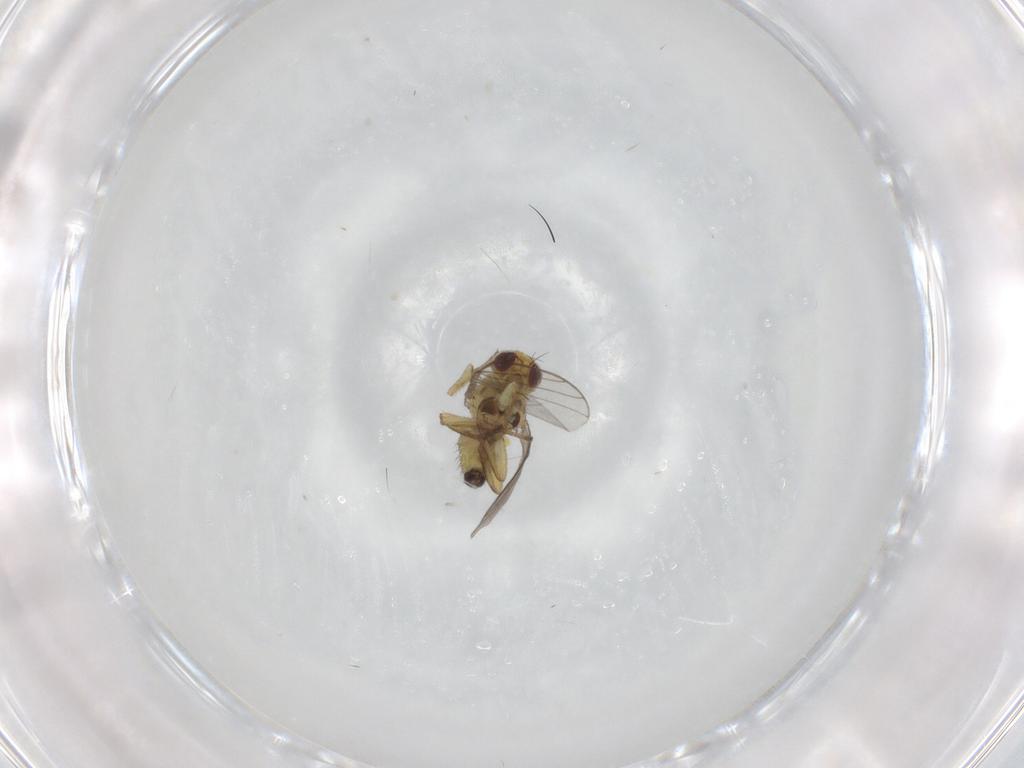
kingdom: Animalia
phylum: Arthropoda
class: Insecta
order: Diptera
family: Agromyzidae
